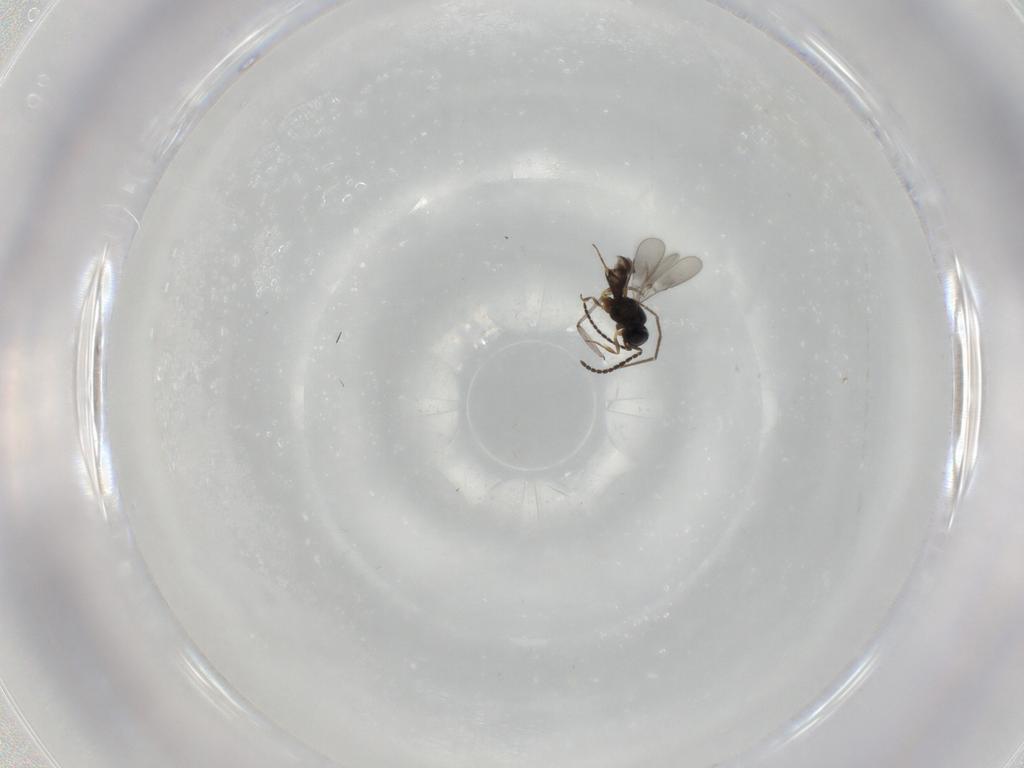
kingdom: Animalia
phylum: Arthropoda
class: Insecta
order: Hymenoptera
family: Scelionidae
